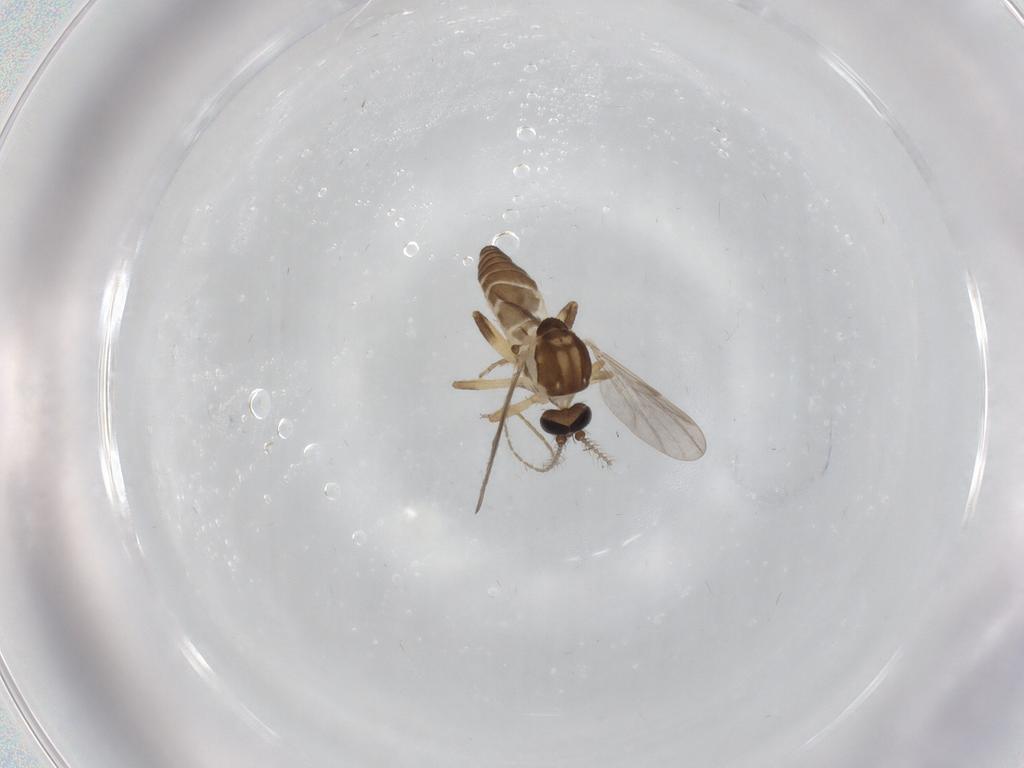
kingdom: Animalia
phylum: Arthropoda
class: Insecta
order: Diptera
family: Ceratopogonidae
